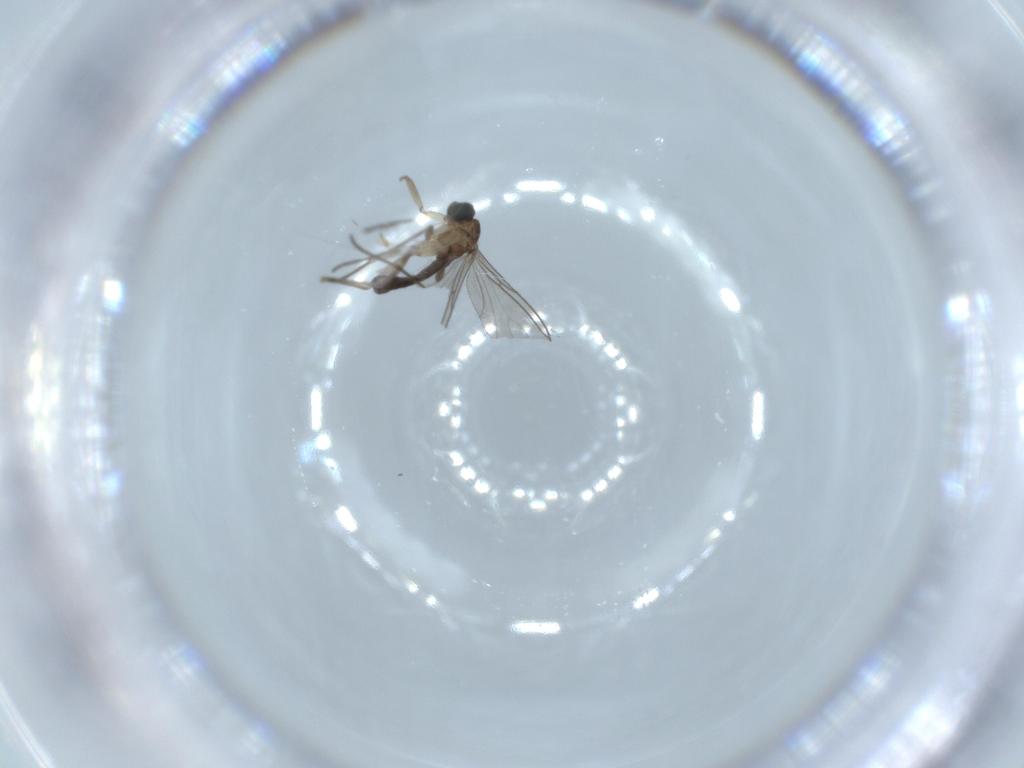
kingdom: Animalia
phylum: Arthropoda
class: Insecta
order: Diptera
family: Sciaridae
